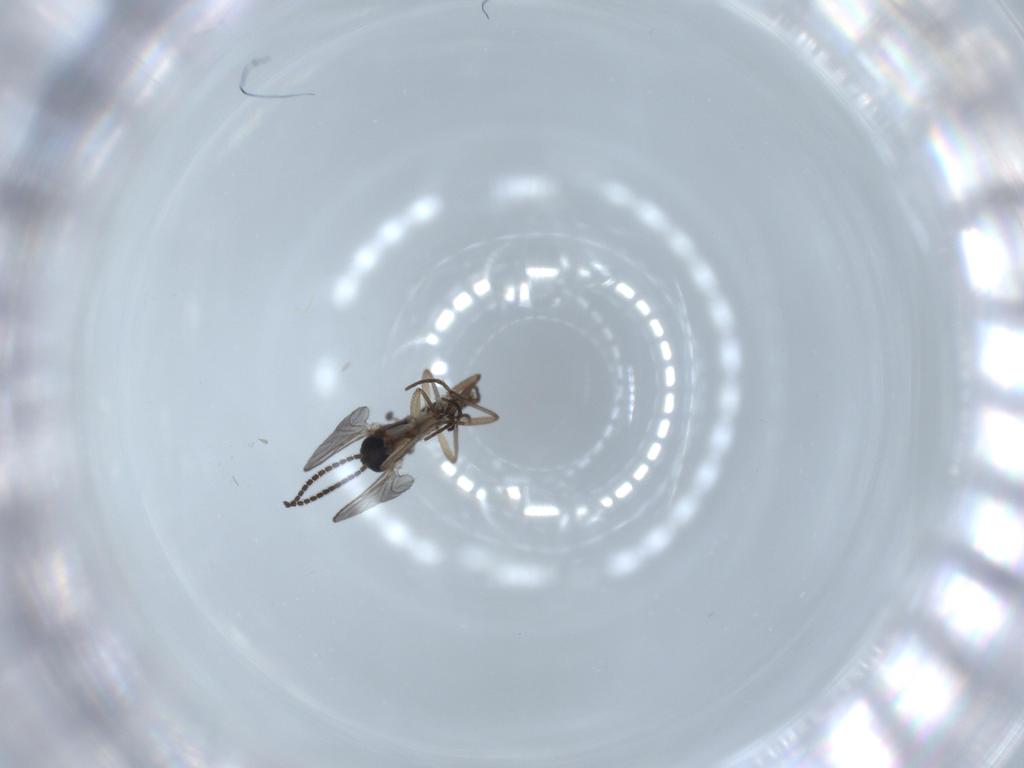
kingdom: Animalia
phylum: Arthropoda
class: Insecta
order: Diptera
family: Sciaridae
